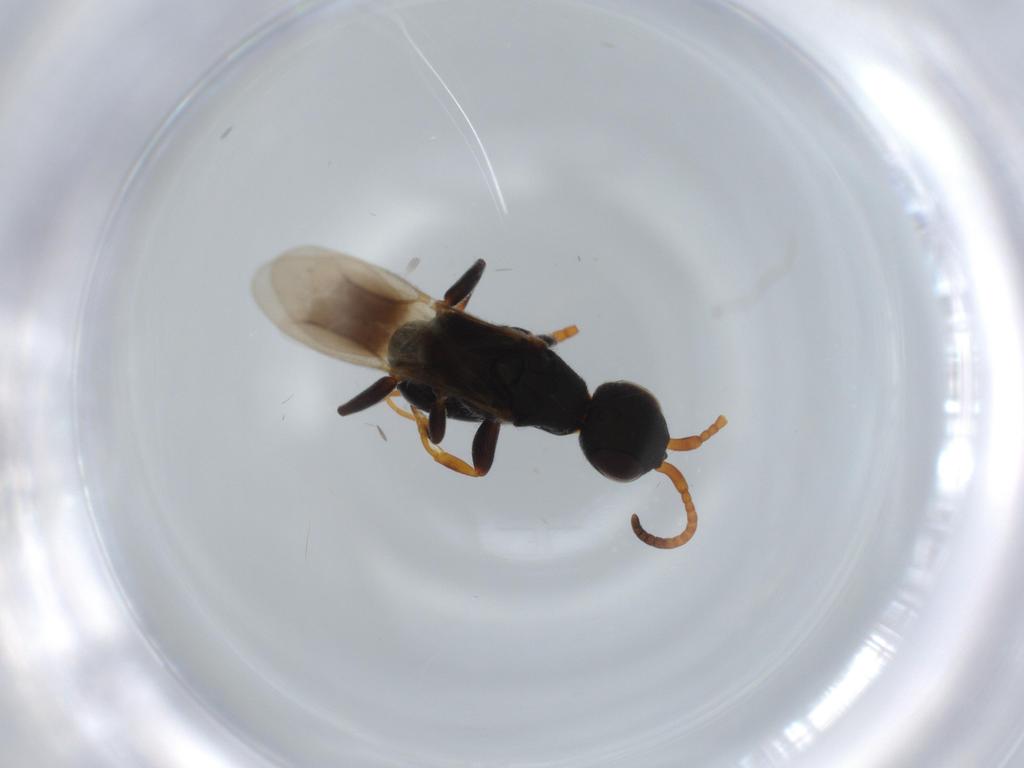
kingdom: Animalia
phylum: Arthropoda
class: Insecta
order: Hymenoptera
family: Bethylidae
